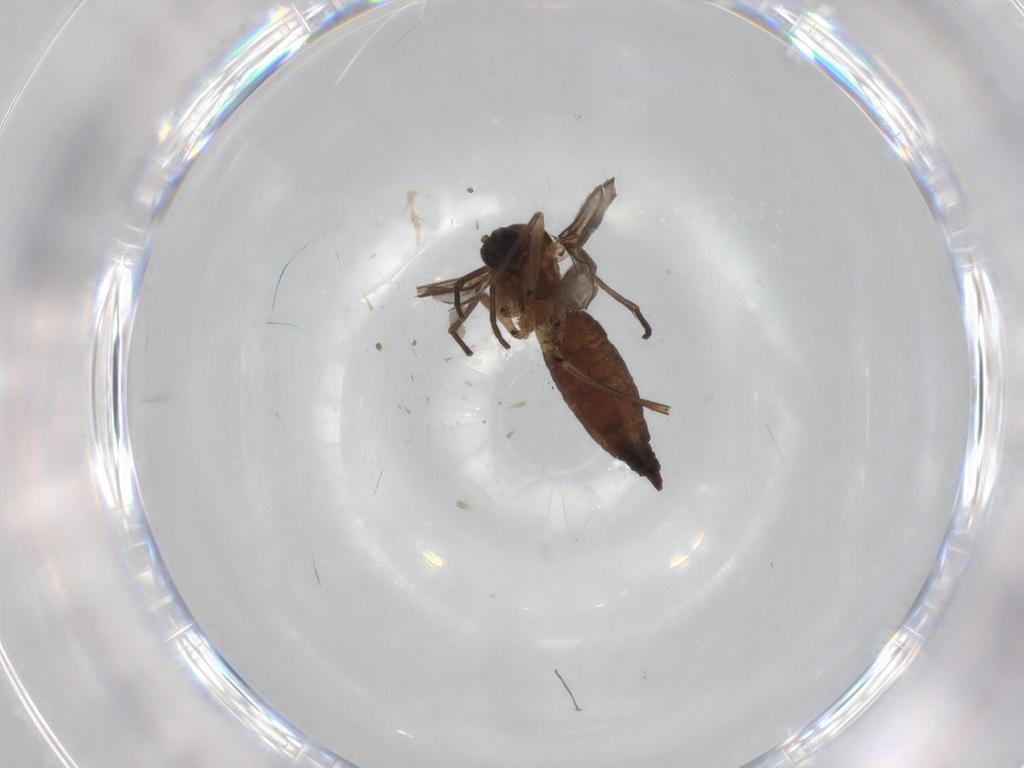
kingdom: Animalia
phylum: Arthropoda
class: Insecta
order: Diptera
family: Sciaridae
